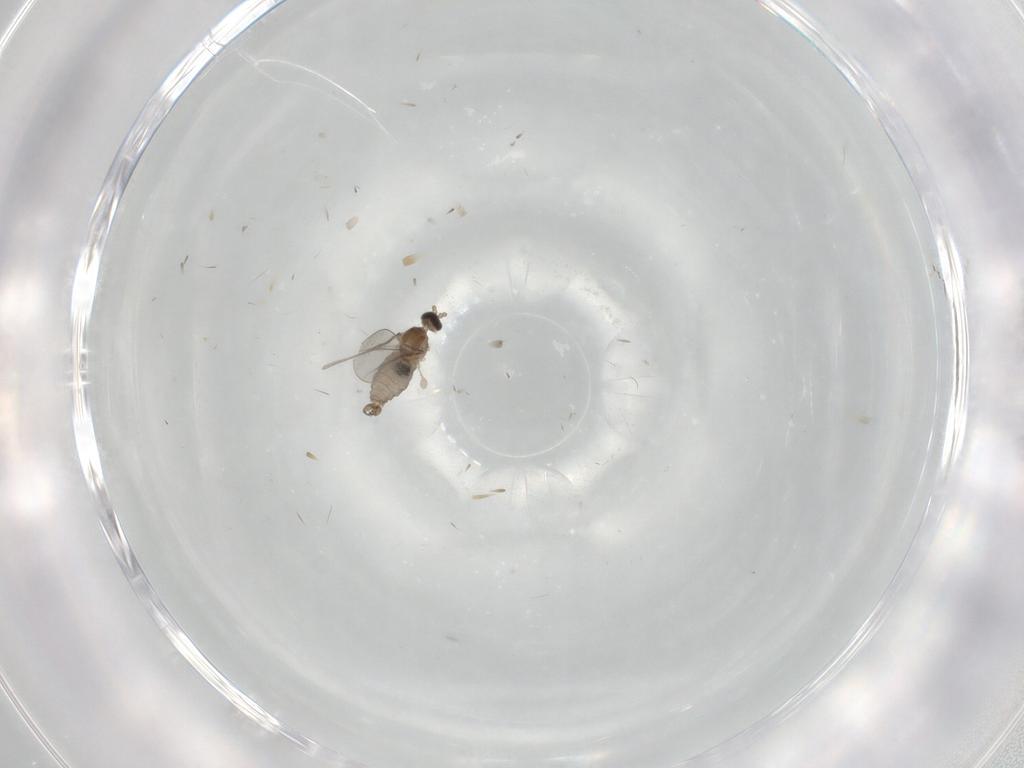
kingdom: Animalia
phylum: Arthropoda
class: Insecta
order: Diptera
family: Cecidomyiidae
